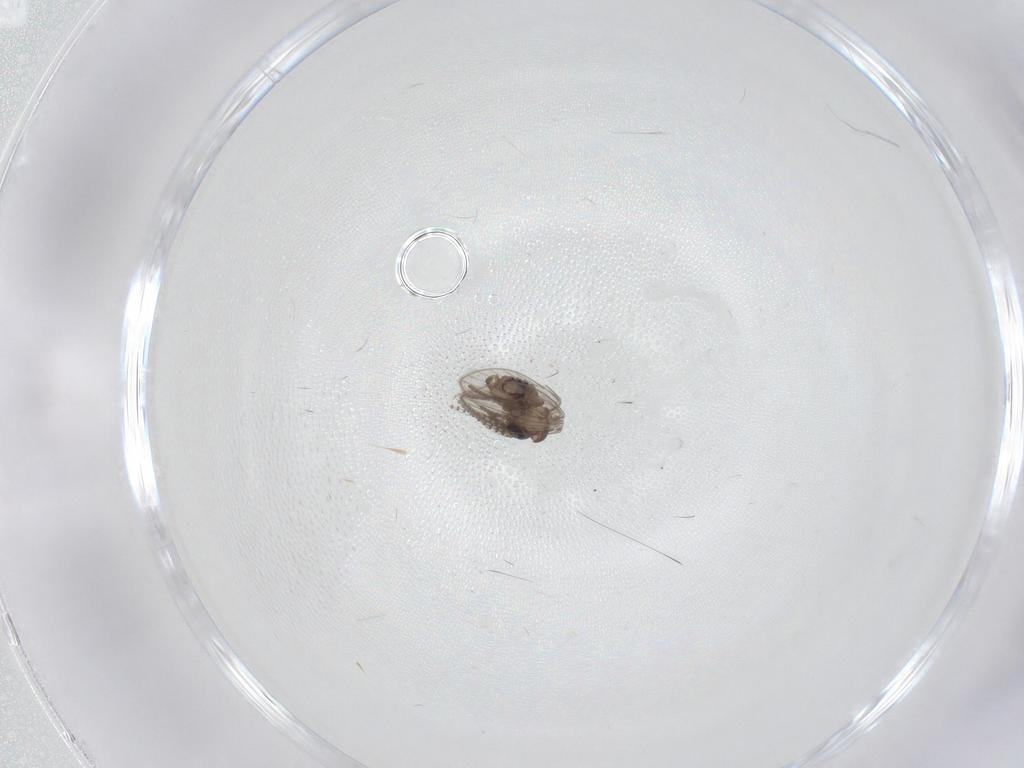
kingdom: Animalia
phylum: Arthropoda
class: Insecta
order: Diptera
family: Psychodidae
